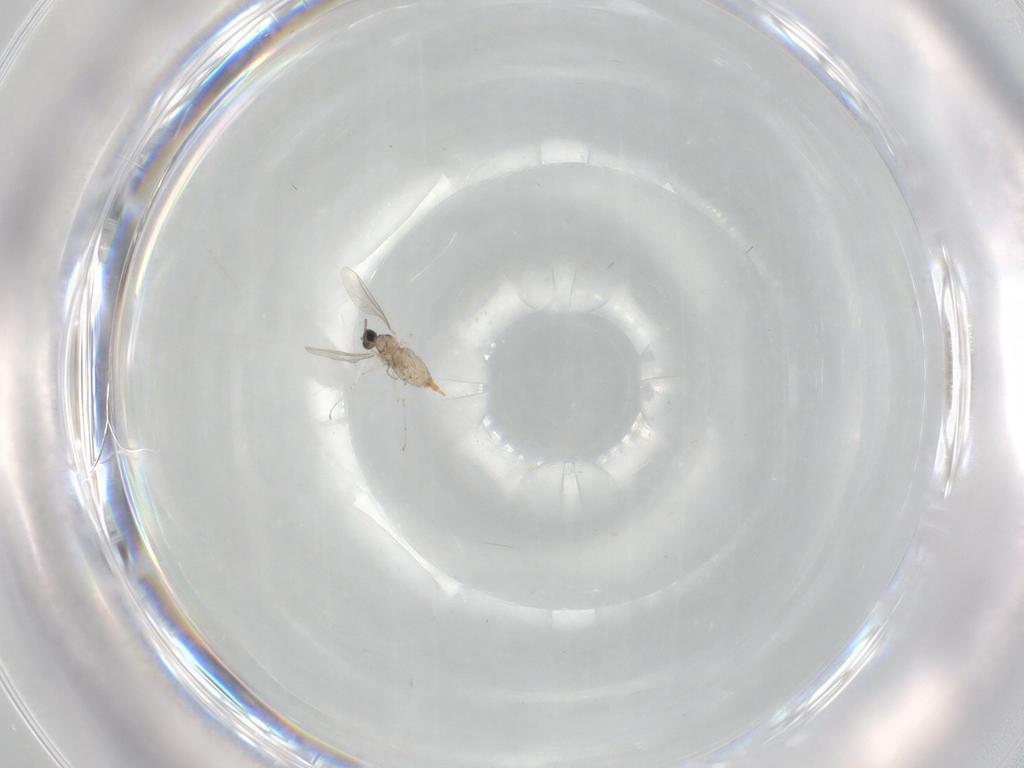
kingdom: Animalia
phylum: Arthropoda
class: Insecta
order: Diptera
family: Cecidomyiidae
